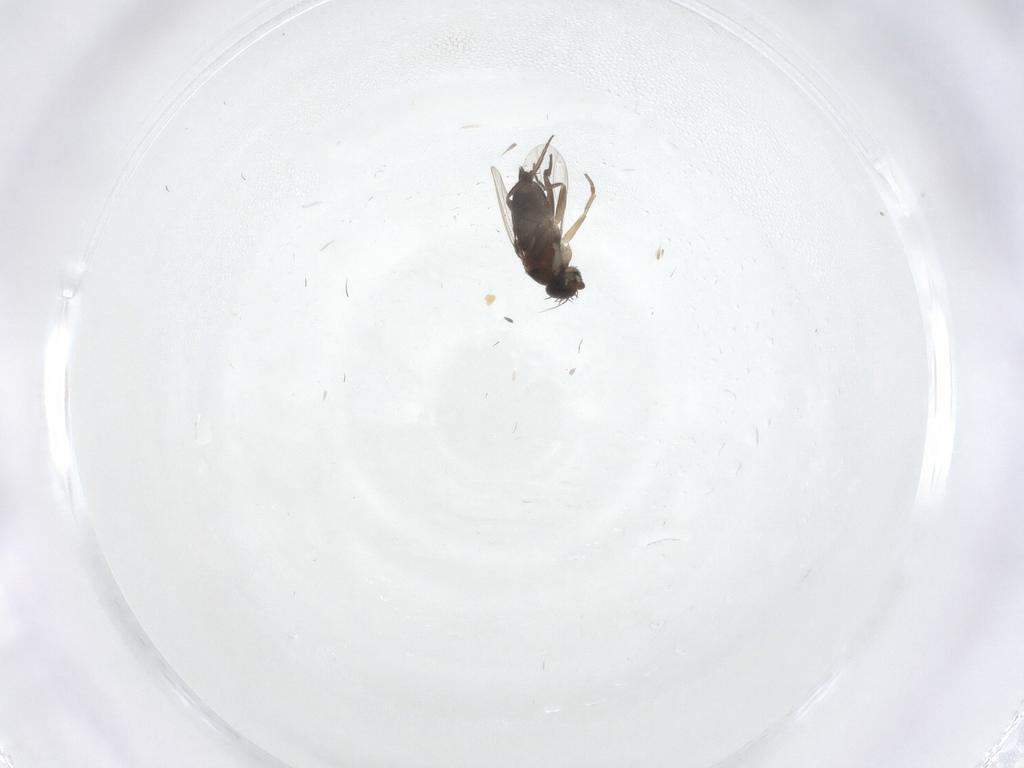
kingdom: Animalia
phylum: Arthropoda
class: Insecta
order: Diptera
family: Phoridae
